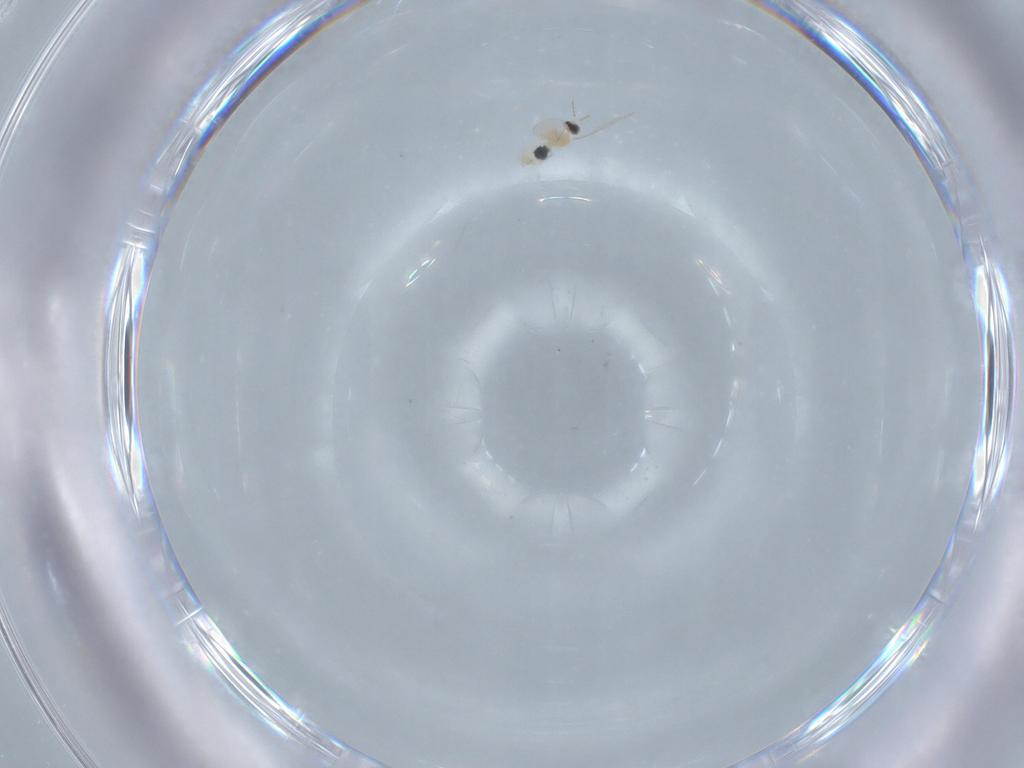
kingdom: Animalia
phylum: Arthropoda
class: Insecta
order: Diptera
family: Cecidomyiidae
